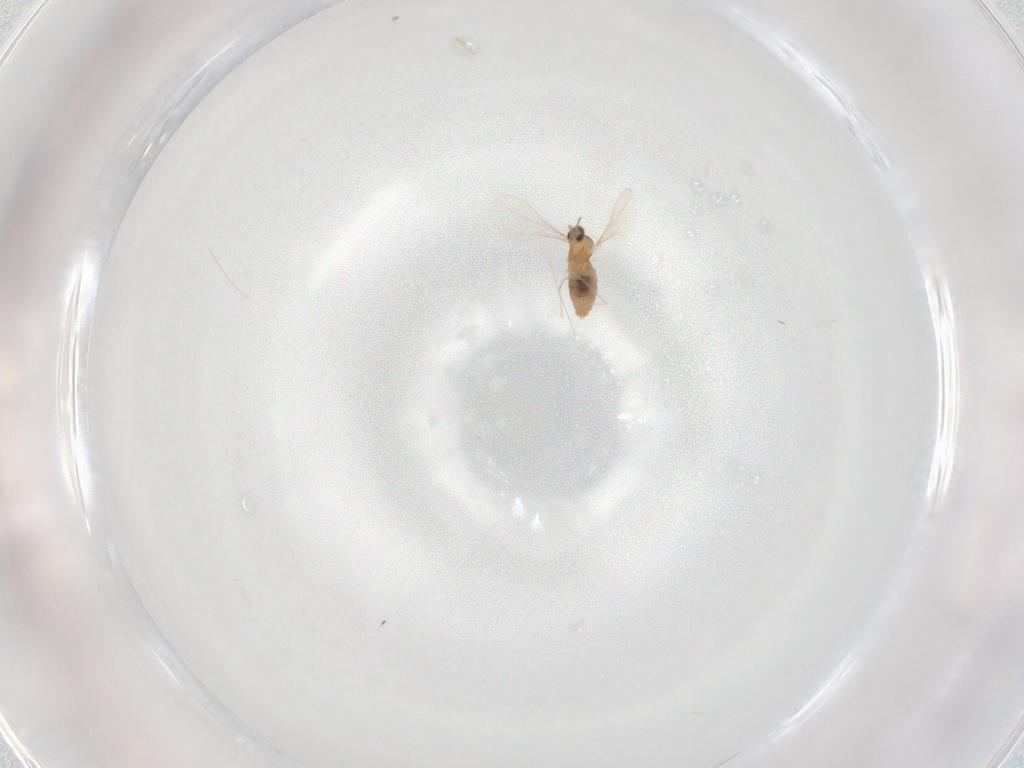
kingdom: Animalia
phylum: Arthropoda
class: Insecta
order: Diptera
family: Cecidomyiidae
